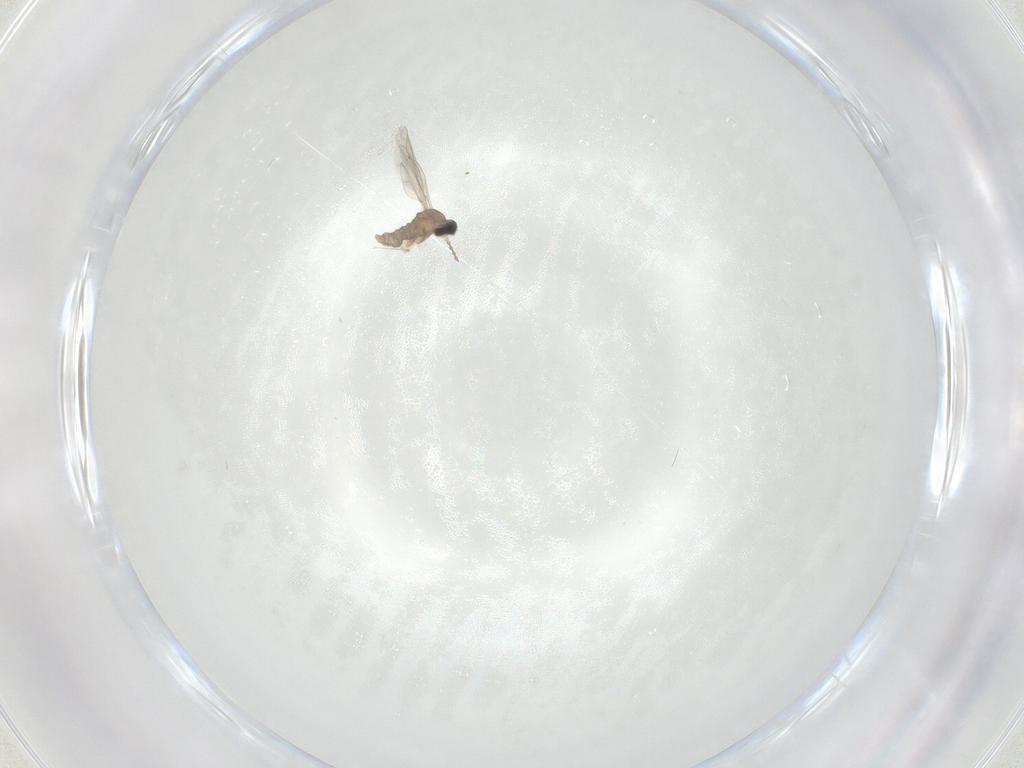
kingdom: Animalia
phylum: Arthropoda
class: Insecta
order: Diptera
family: Cecidomyiidae
